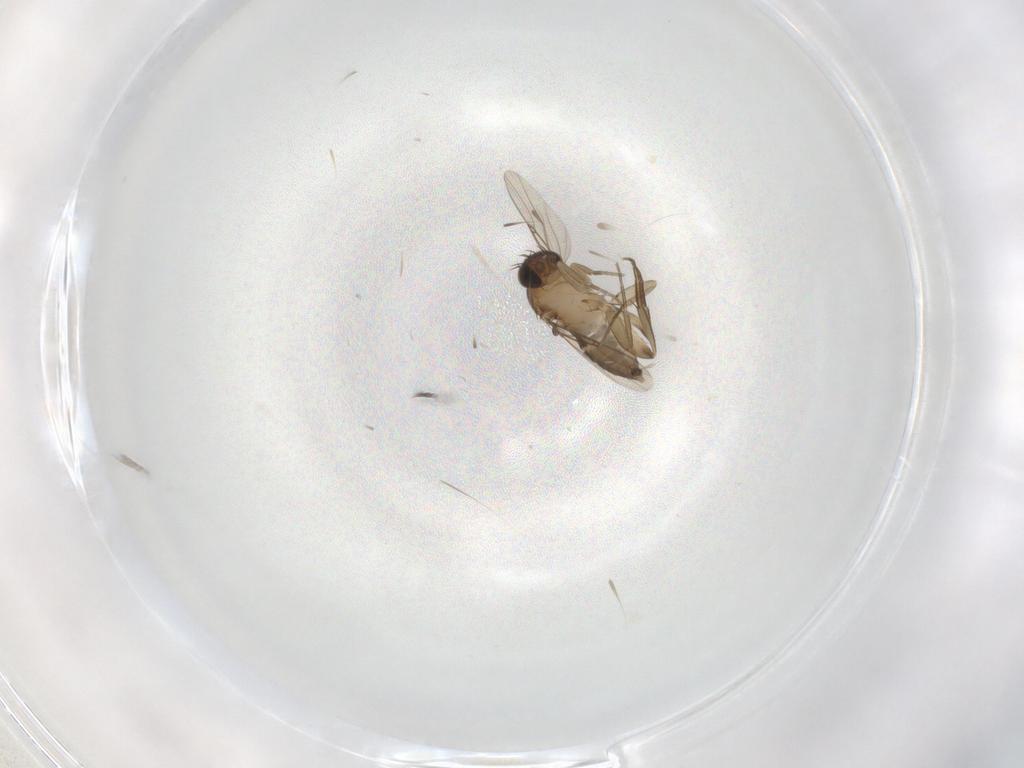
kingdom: Animalia
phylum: Arthropoda
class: Insecta
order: Diptera
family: Phoridae
